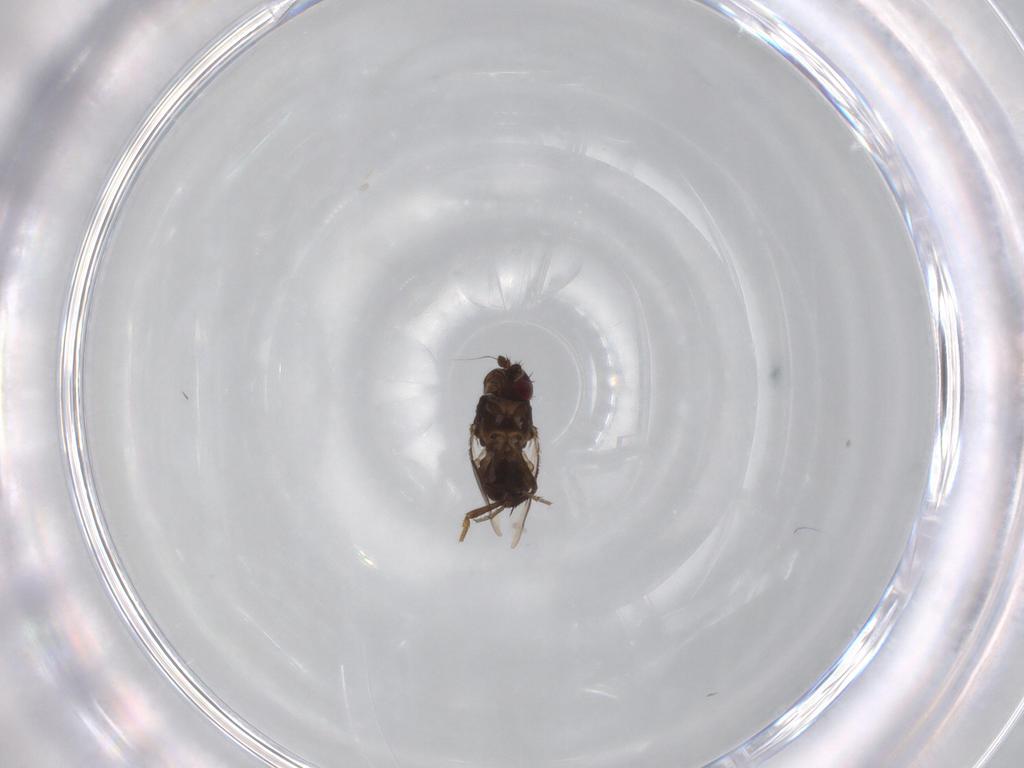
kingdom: Animalia
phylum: Arthropoda
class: Insecta
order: Diptera
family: Sphaeroceridae
